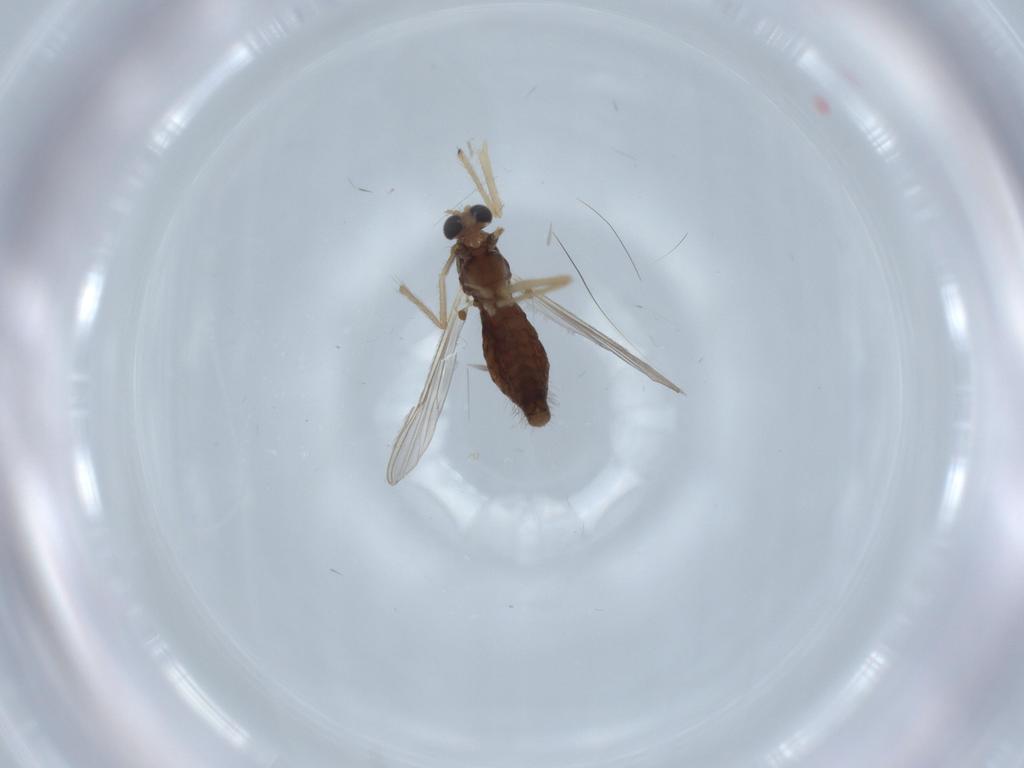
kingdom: Animalia
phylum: Arthropoda
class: Insecta
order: Diptera
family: Chironomidae
